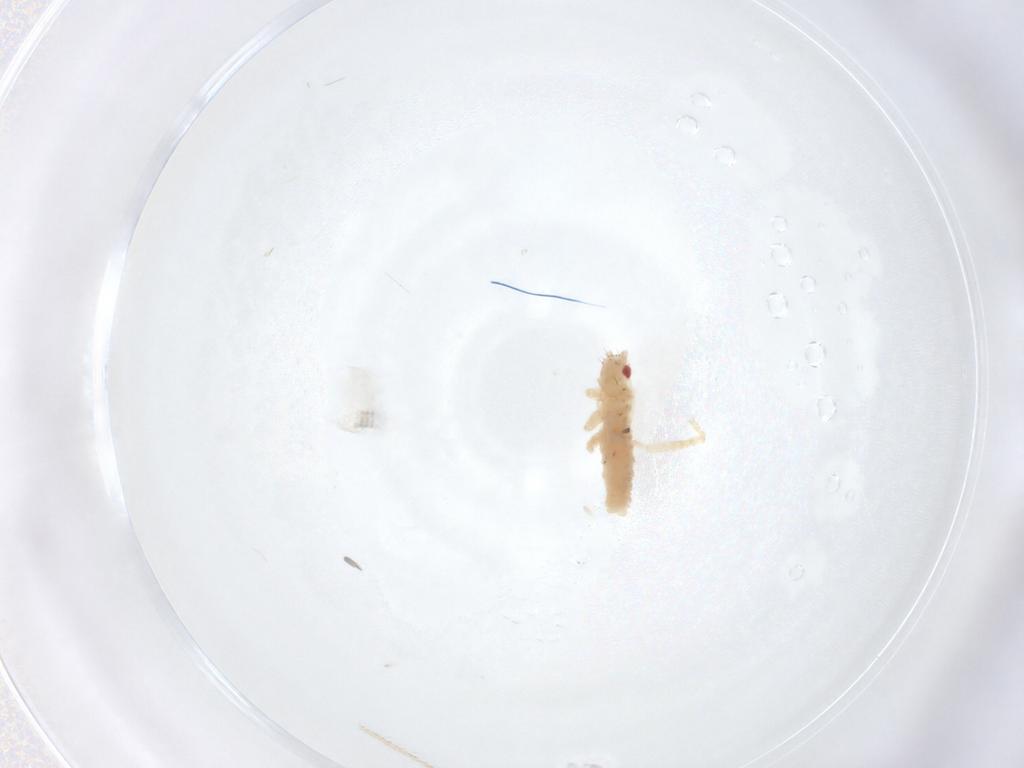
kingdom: Animalia
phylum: Arthropoda
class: Insecta
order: Hemiptera
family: Aphididae
